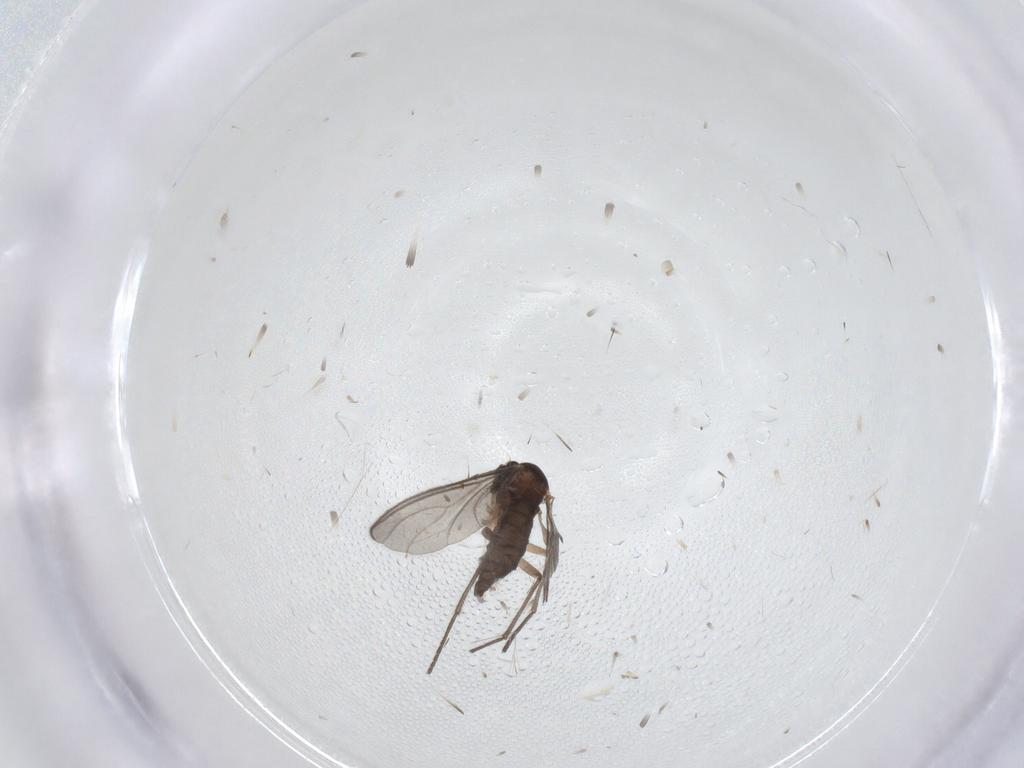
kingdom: Animalia
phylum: Arthropoda
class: Insecta
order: Diptera
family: Sciaridae
